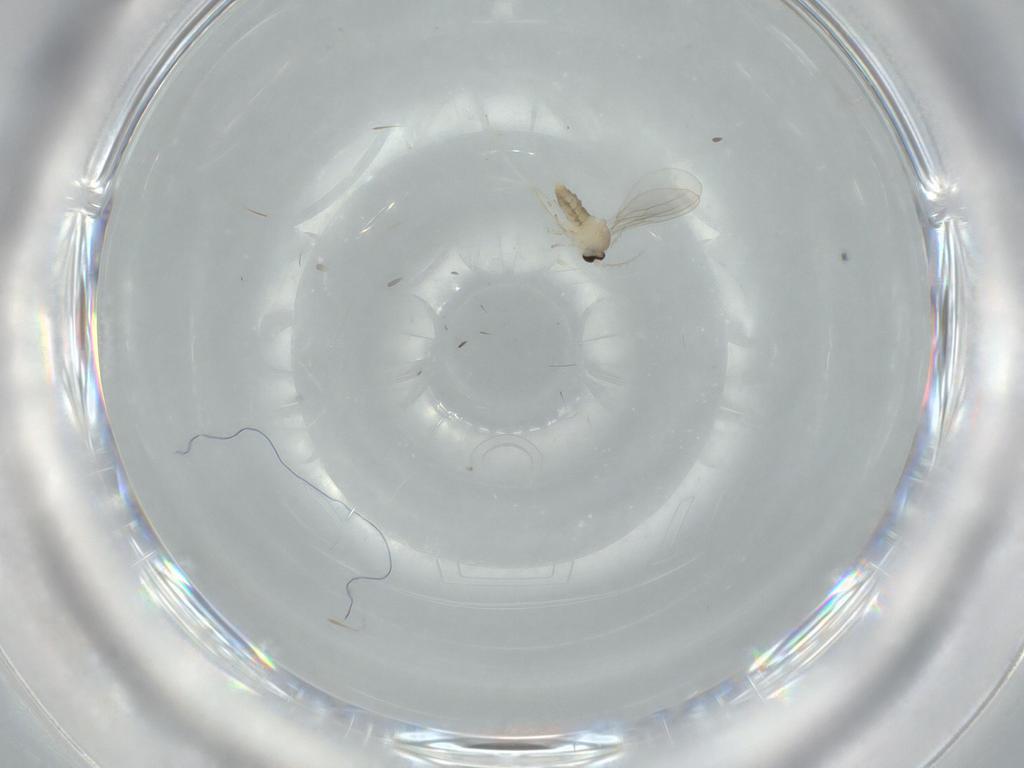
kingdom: Animalia
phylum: Arthropoda
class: Insecta
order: Diptera
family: Cecidomyiidae
